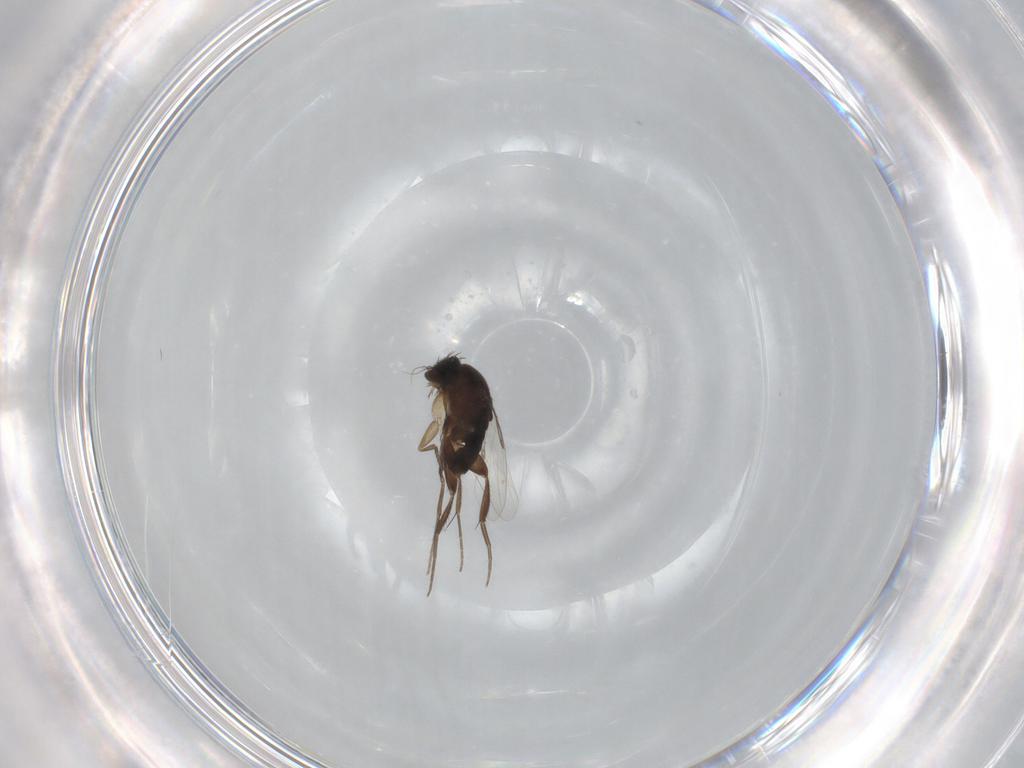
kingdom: Animalia
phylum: Arthropoda
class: Insecta
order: Diptera
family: Phoridae
